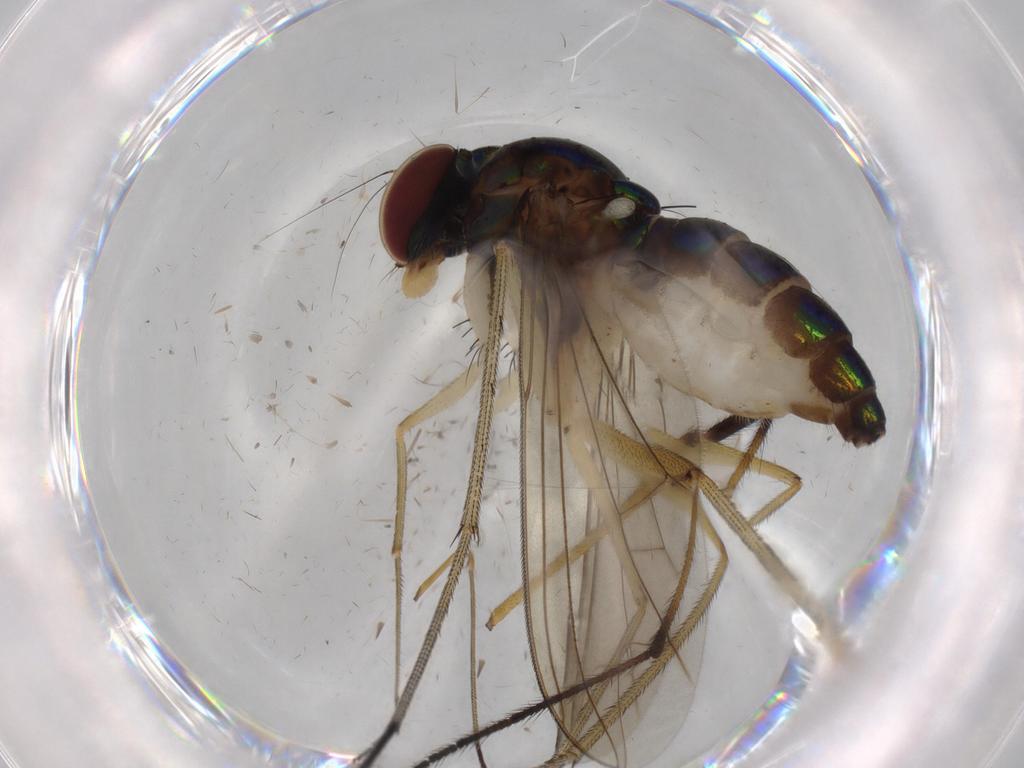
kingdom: Animalia
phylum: Arthropoda
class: Insecta
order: Diptera
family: Dolichopodidae
